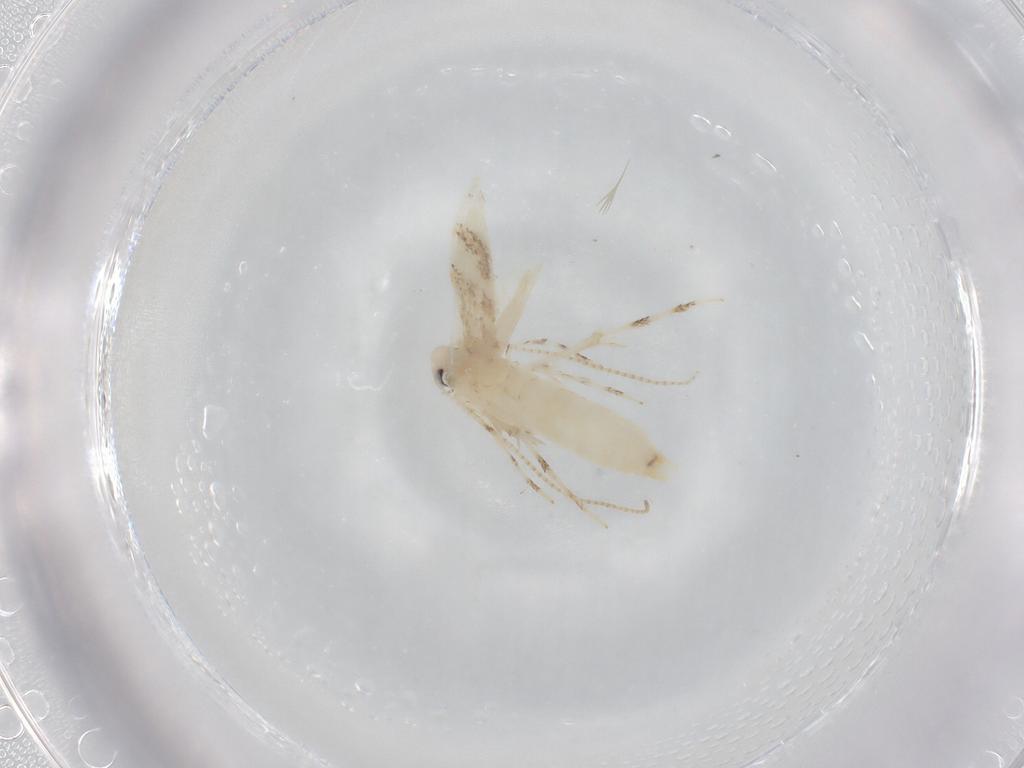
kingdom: Animalia
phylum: Arthropoda
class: Insecta
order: Lepidoptera
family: Gracillariidae
